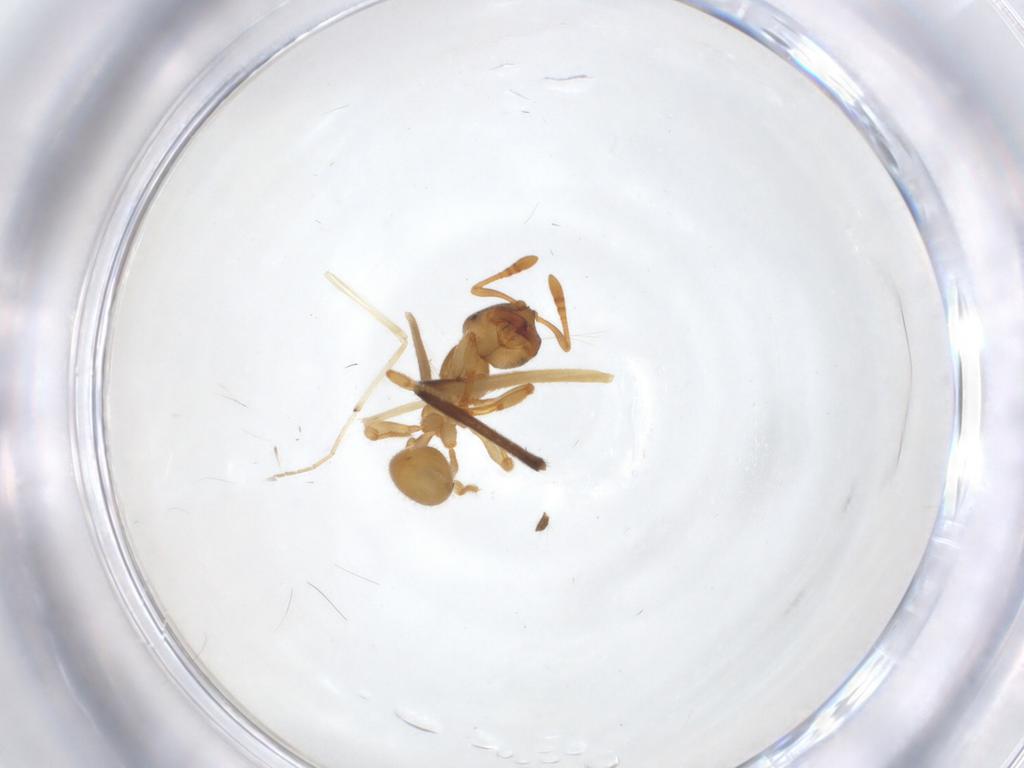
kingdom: Animalia
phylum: Arthropoda
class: Insecta
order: Hymenoptera
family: Formicidae
